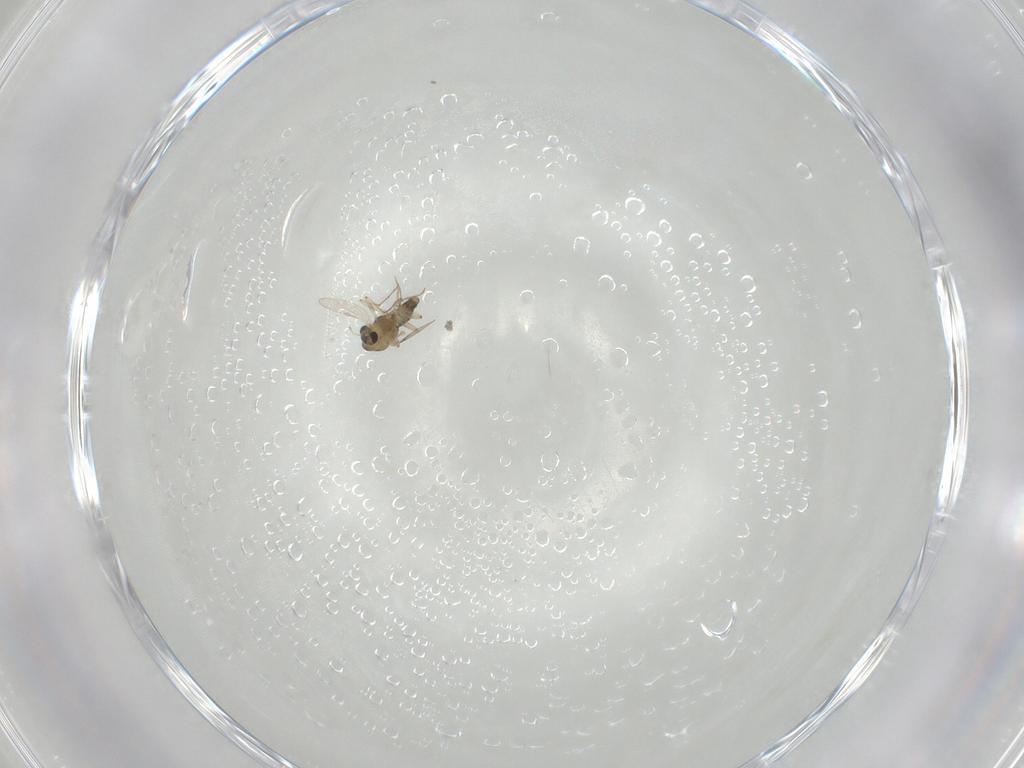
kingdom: Animalia
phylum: Arthropoda
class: Insecta
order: Diptera
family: Chironomidae
